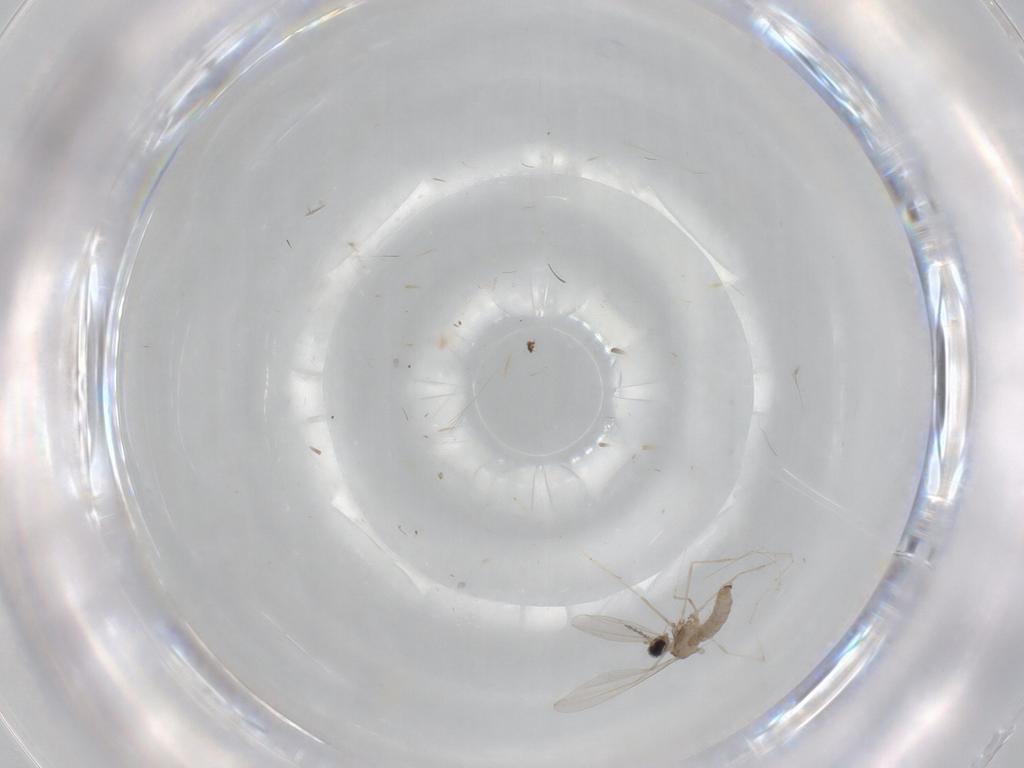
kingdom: Animalia
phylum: Arthropoda
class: Insecta
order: Diptera
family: Cecidomyiidae
